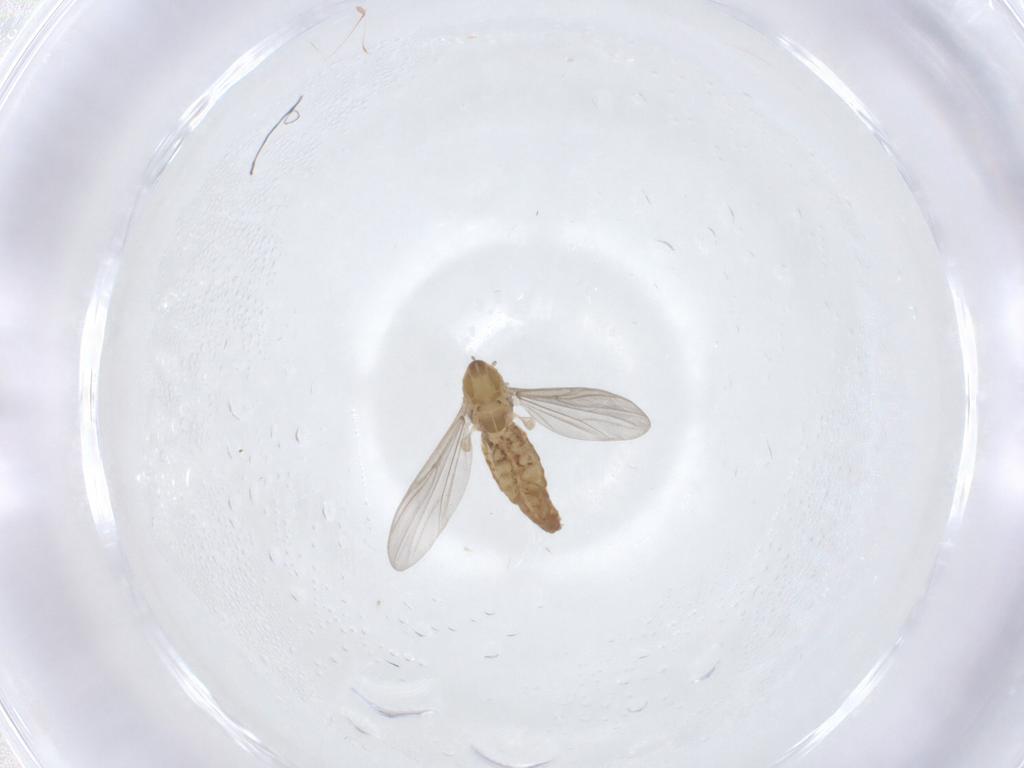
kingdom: Animalia
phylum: Arthropoda
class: Insecta
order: Diptera
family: Chironomidae
